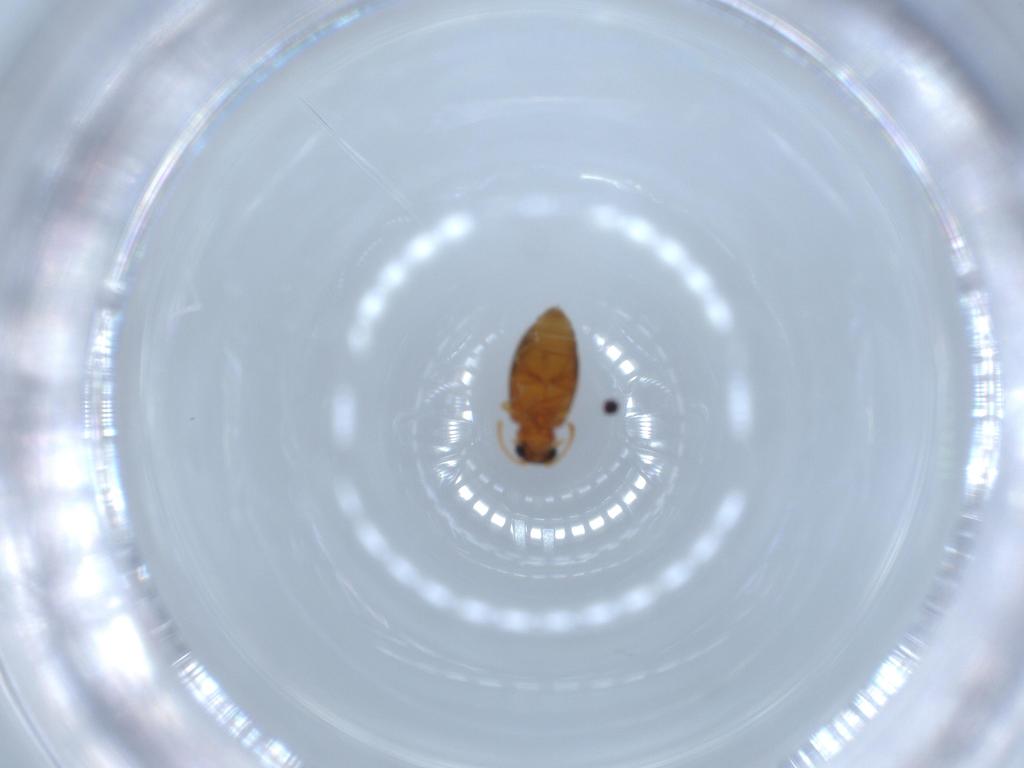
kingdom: Animalia
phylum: Arthropoda
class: Insecta
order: Coleoptera
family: Aderidae
